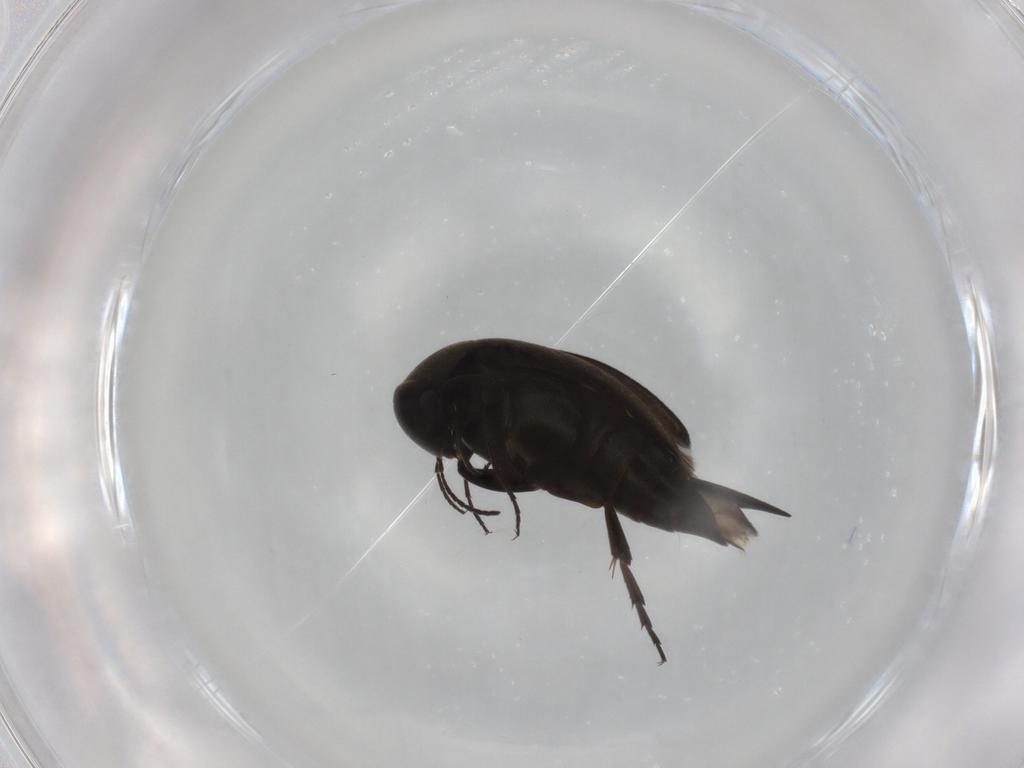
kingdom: Animalia
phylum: Arthropoda
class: Insecta
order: Coleoptera
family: Mordellidae
